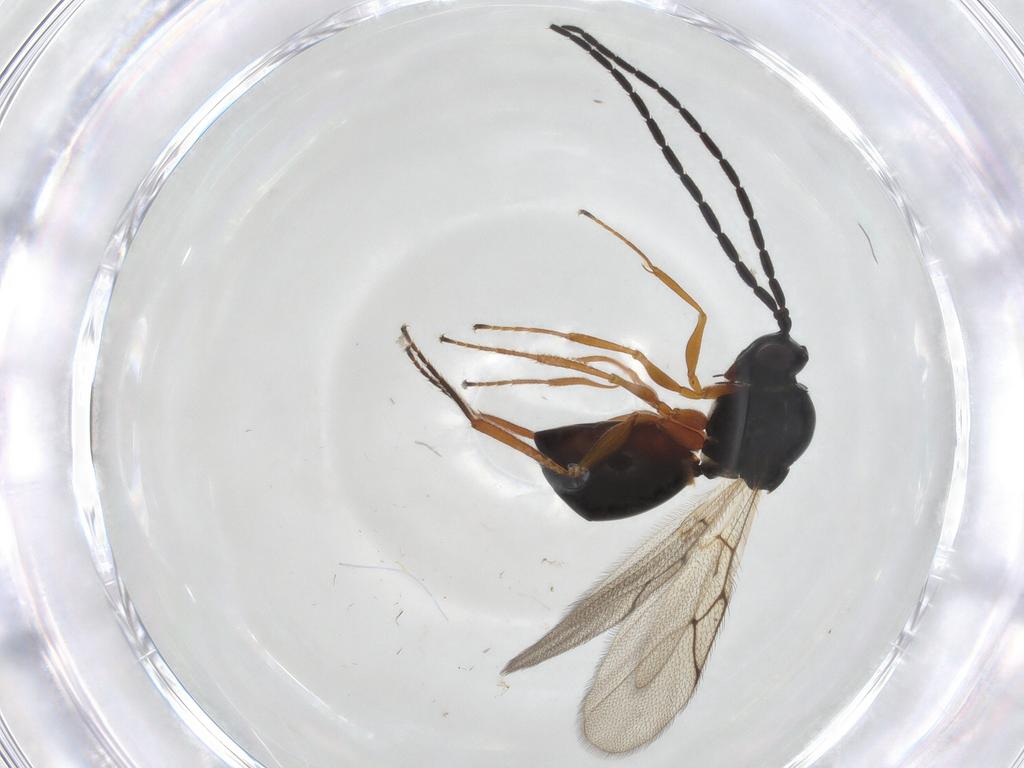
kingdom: Animalia
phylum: Arthropoda
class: Insecta
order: Hymenoptera
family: Figitidae
